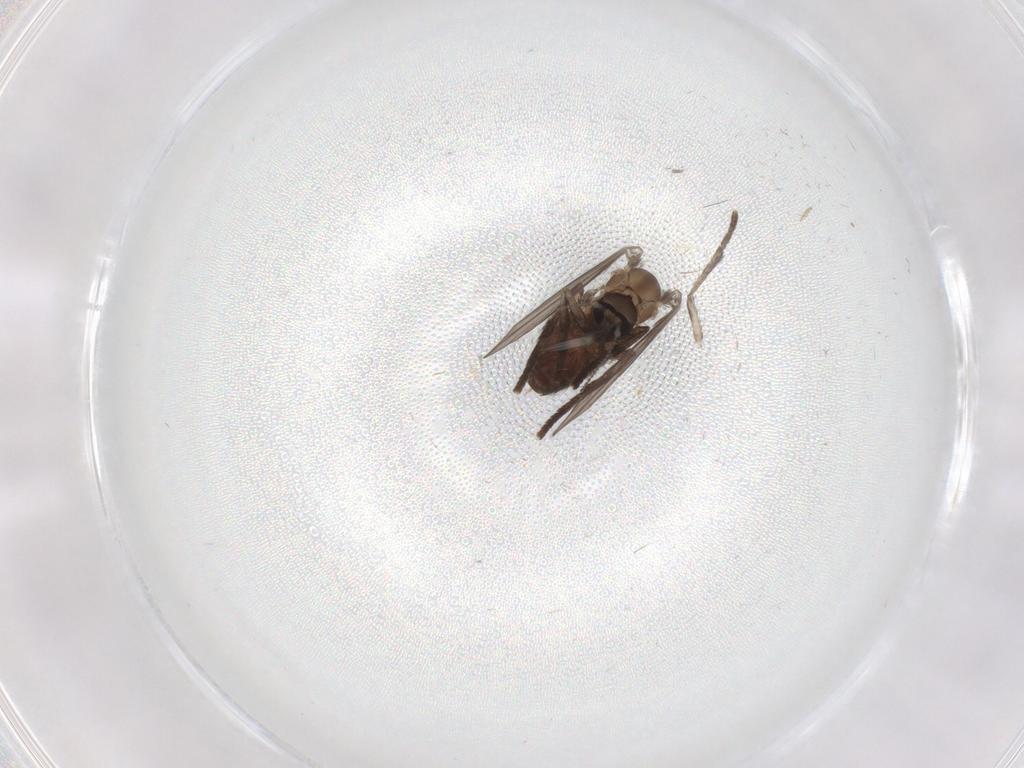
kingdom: Animalia
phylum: Arthropoda
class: Insecta
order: Diptera
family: Psychodidae
